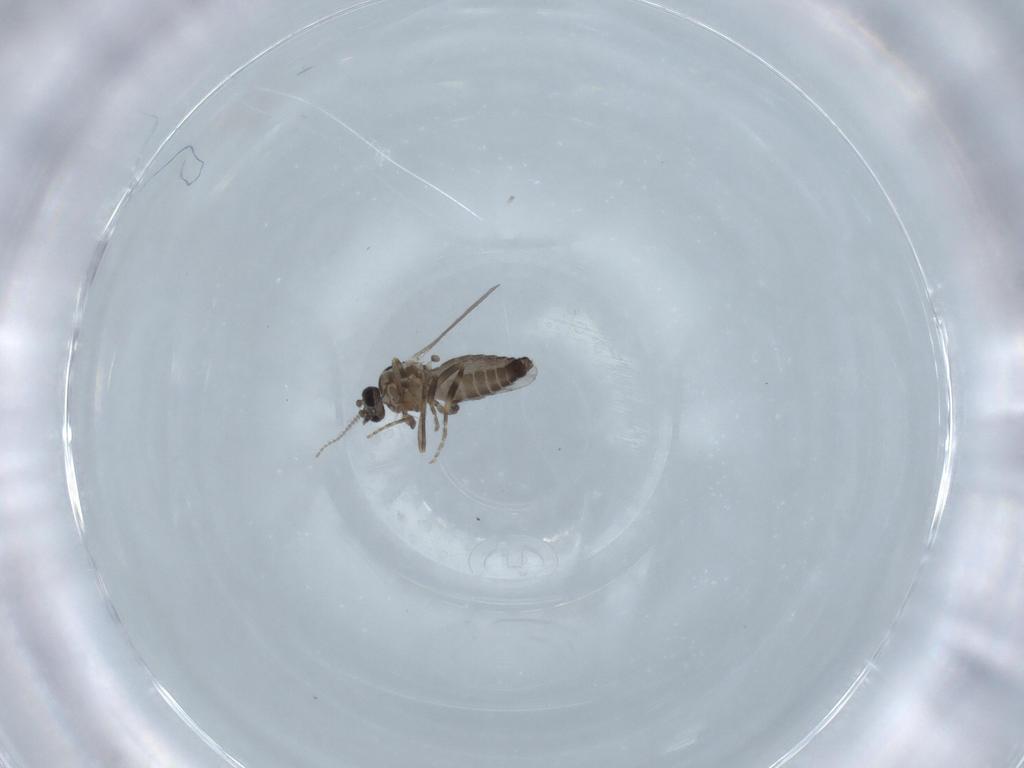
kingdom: Animalia
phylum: Arthropoda
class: Insecta
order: Diptera
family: Ceratopogonidae
